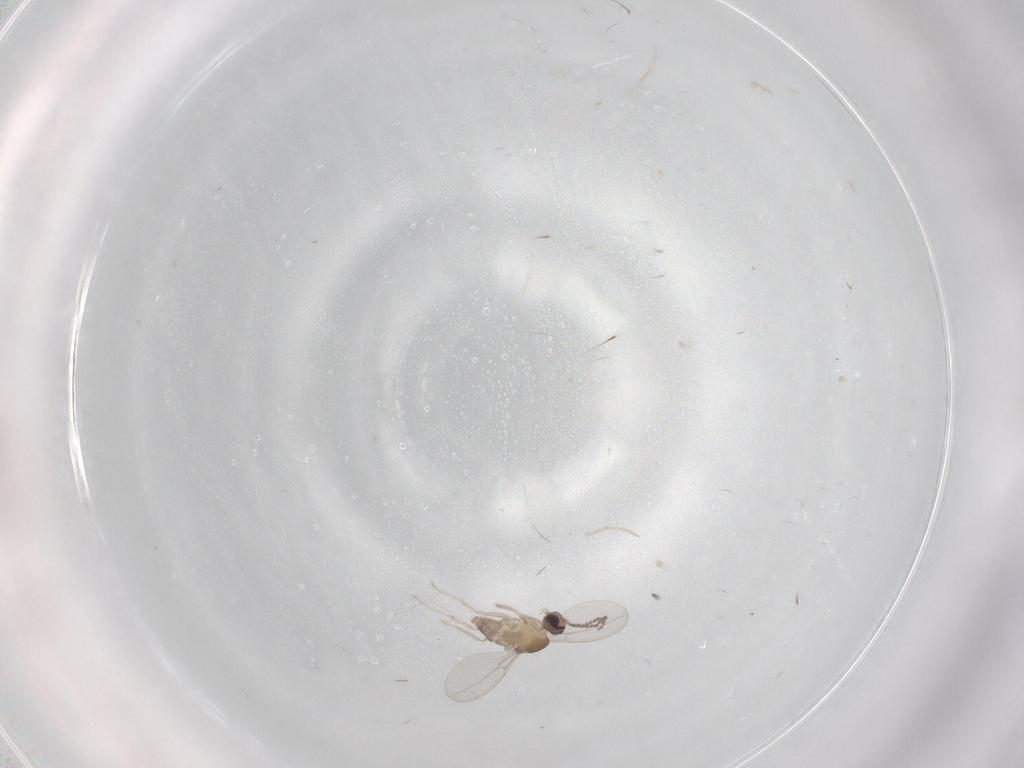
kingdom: Animalia
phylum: Arthropoda
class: Insecta
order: Diptera
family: Cecidomyiidae
